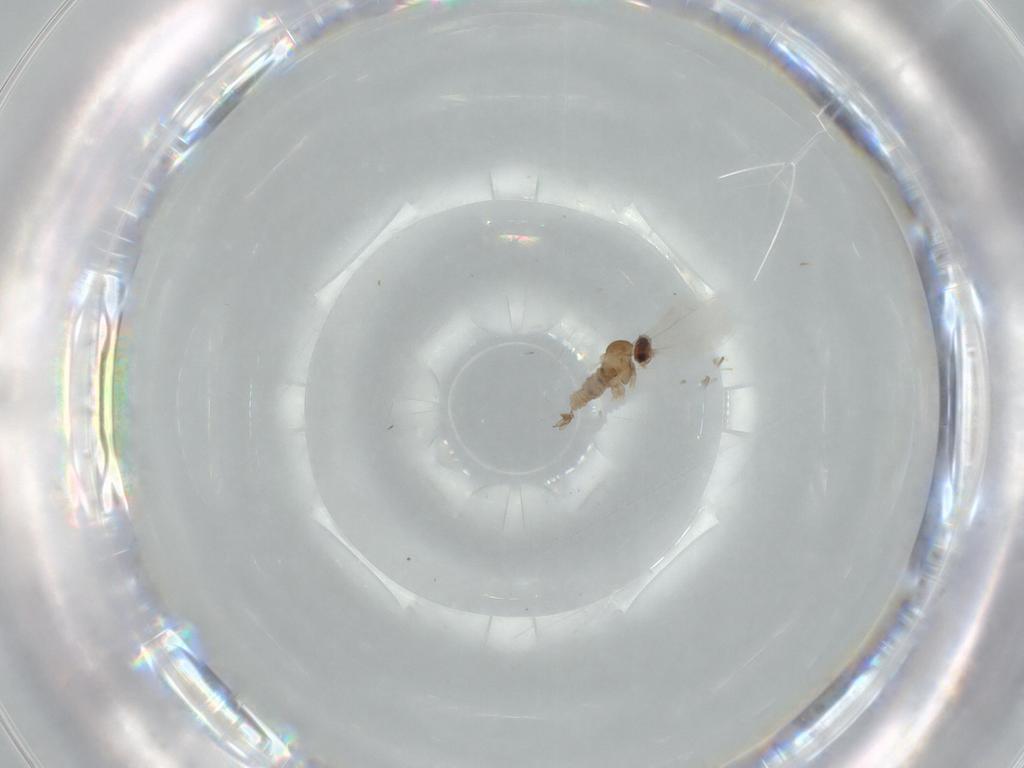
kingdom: Animalia
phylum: Arthropoda
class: Insecta
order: Diptera
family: Cecidomyiidae
